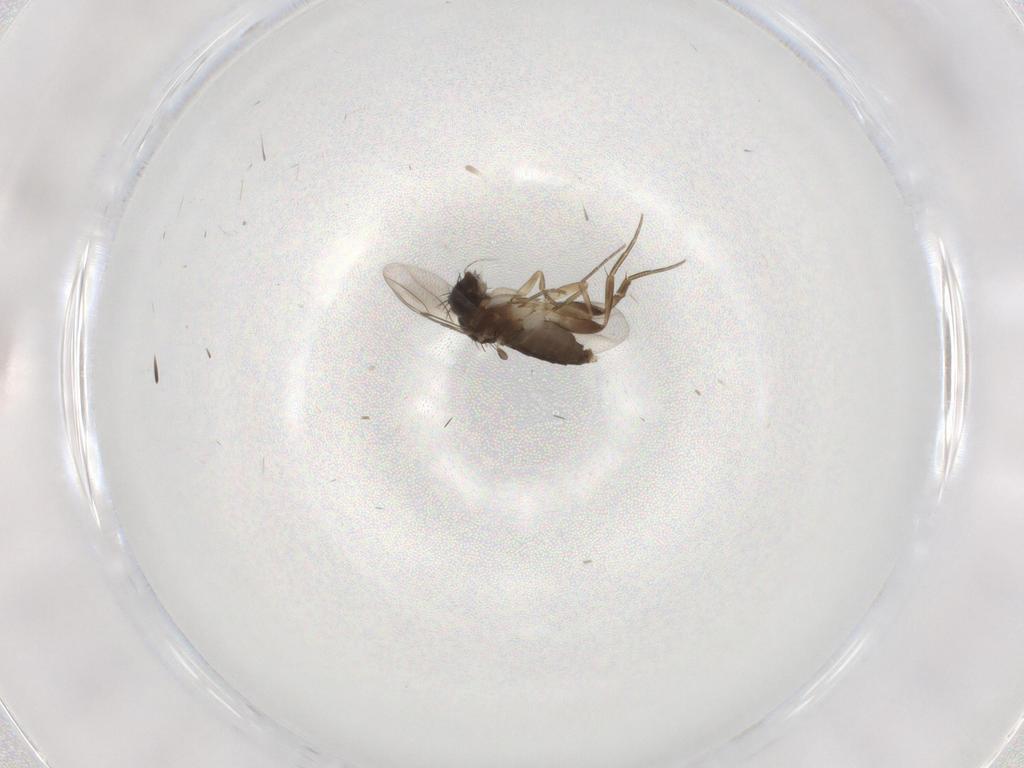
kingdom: Animalia
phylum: Arthropoda
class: Insecta
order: Diptera
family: Phoridae
